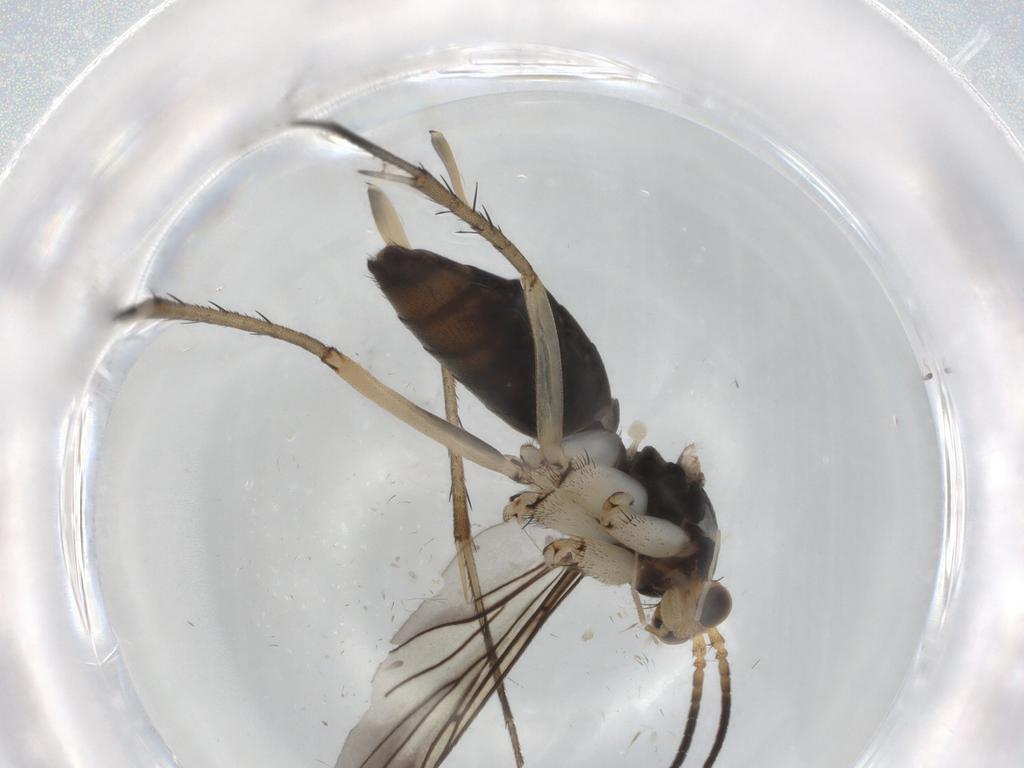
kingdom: Animalia
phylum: Arthropoda
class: Insecta
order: Diptera
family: Mycetophilidae
